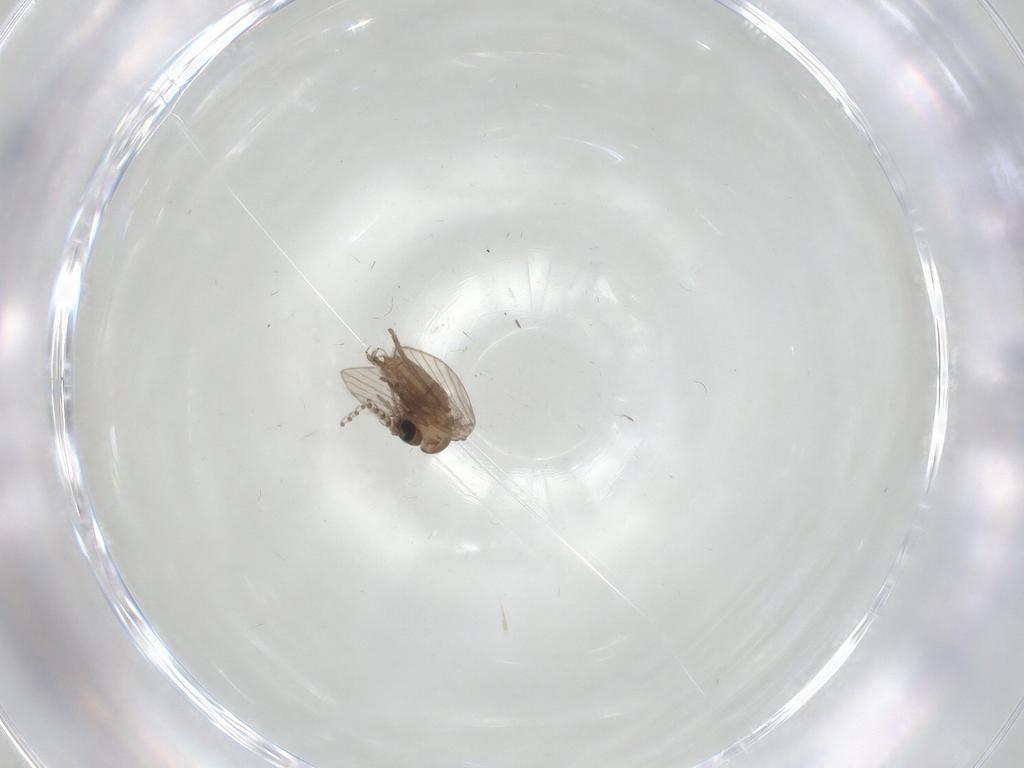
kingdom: Animalia
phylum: Arthropoda
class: Insecta
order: Diptera
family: Psychodidae
